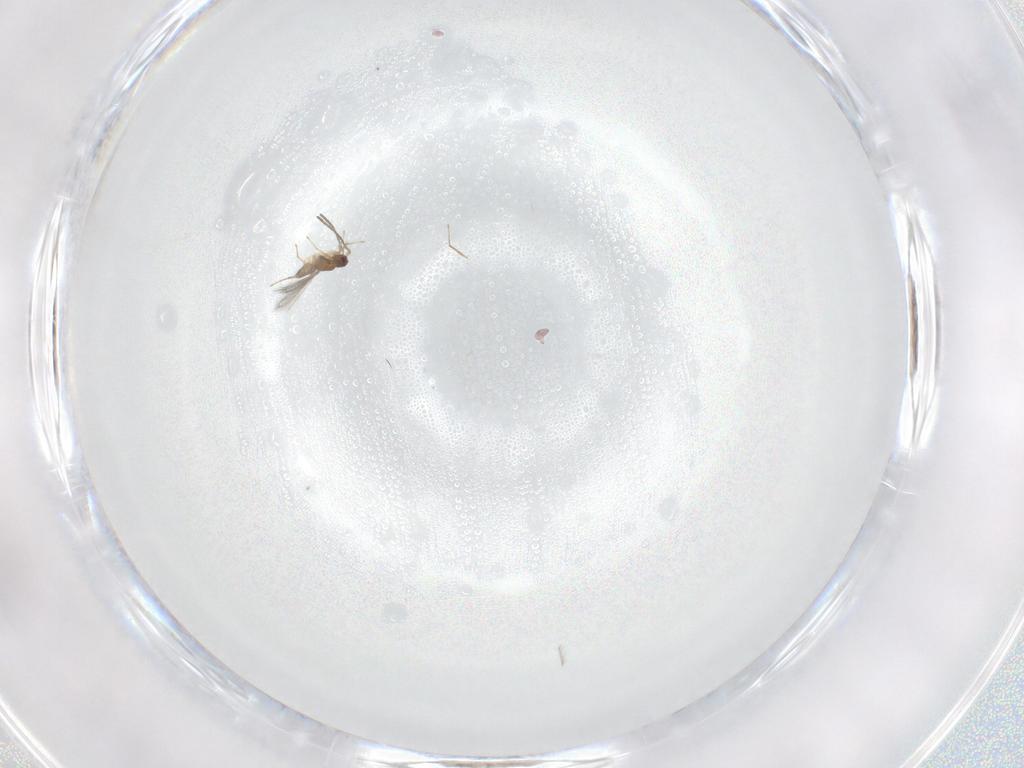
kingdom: Animalia
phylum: Arthropoda
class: Insecta
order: Hymenoptera
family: Mymaridae
